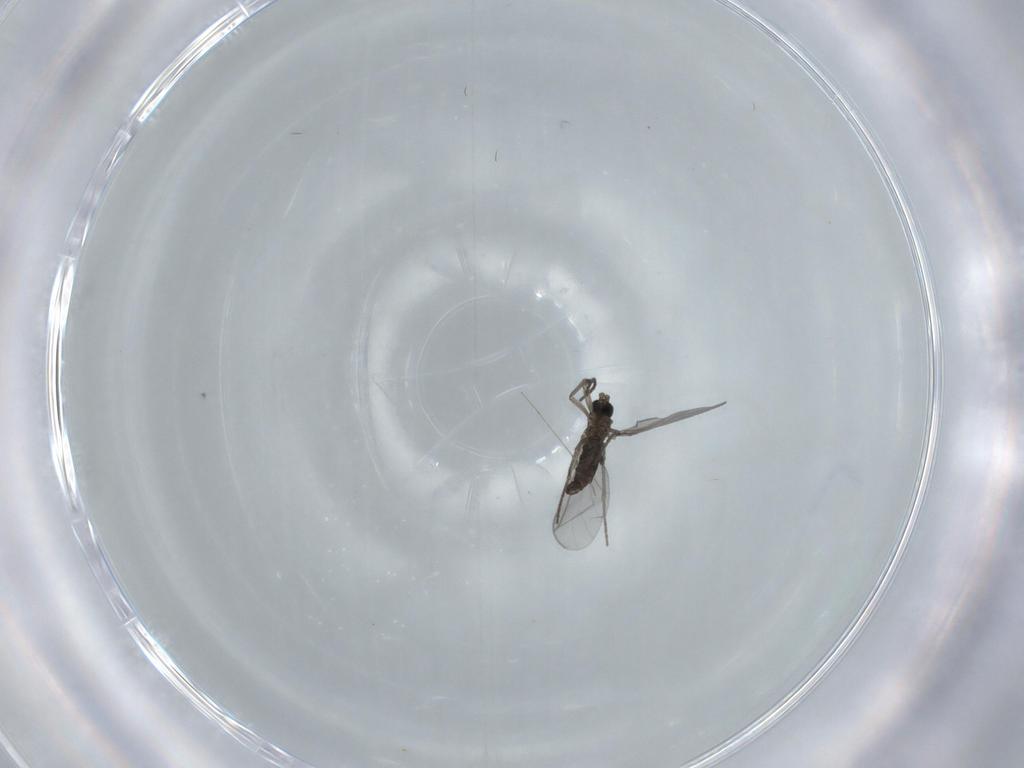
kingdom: Animalia
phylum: Arthropoda
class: Insecta
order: Diptera
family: Cecidomyiidae
